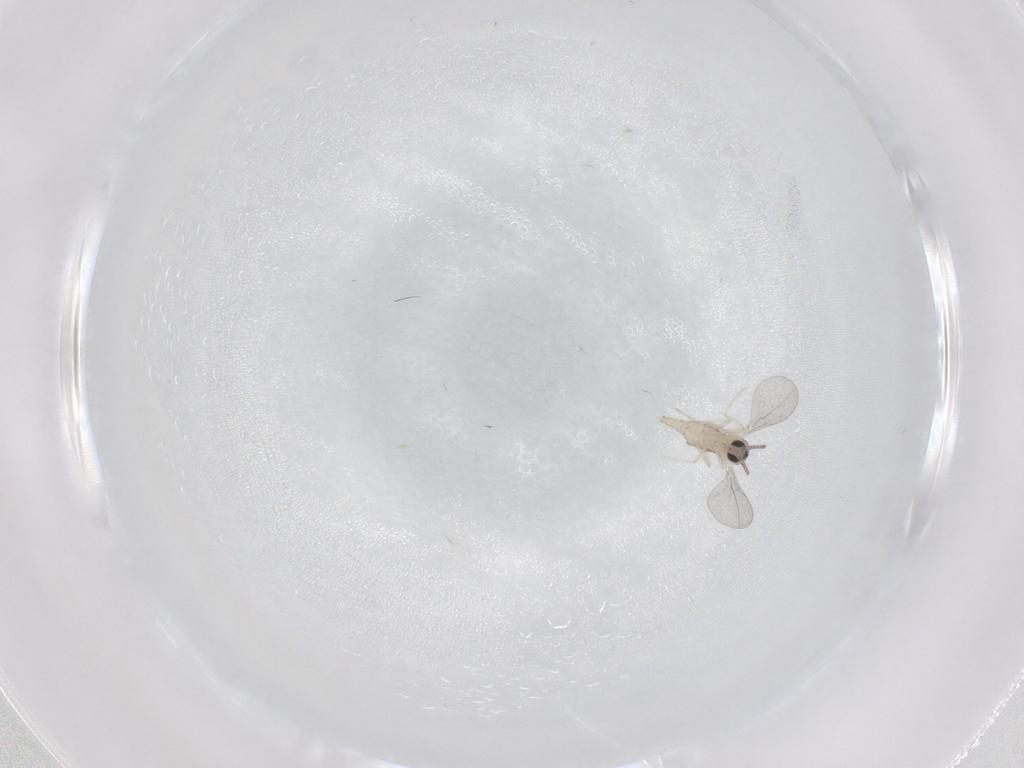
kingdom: Animalia
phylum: Arthropoda
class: Insecta
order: Diptera
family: Cecidomyiidae
